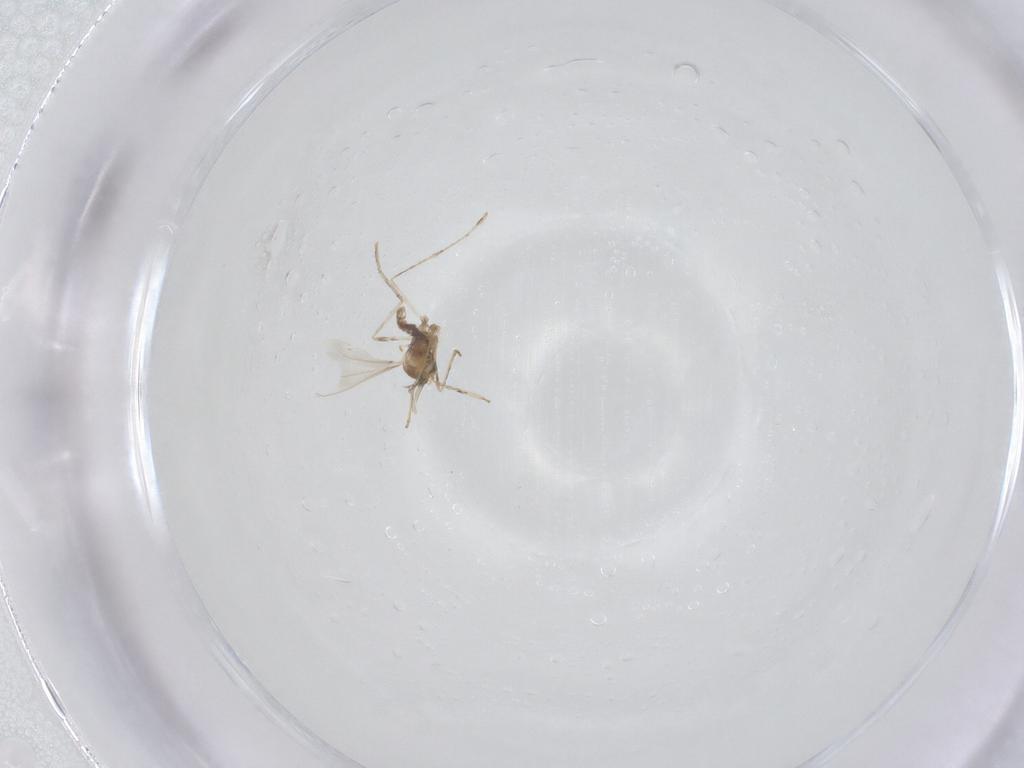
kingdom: Animalia
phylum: Arthropoda
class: Insecta
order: Diptera
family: Cecidomyiidae
